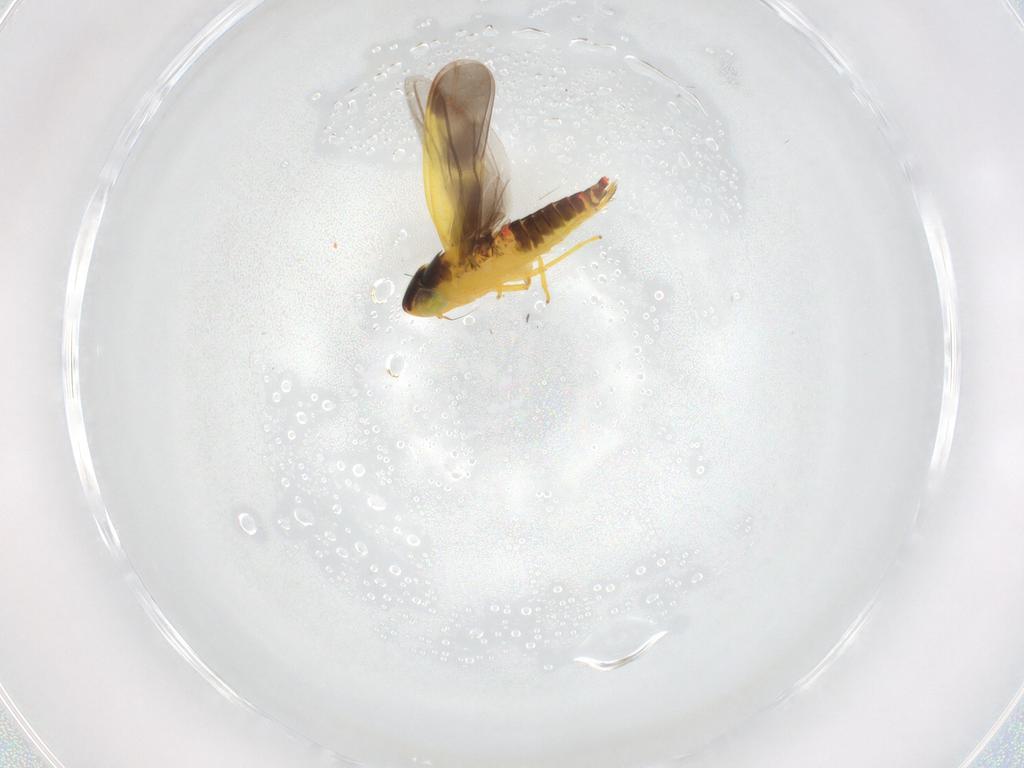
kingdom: Animalia
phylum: Arthropoda
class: Insecta
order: Hemiptera
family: Cicadellidae
